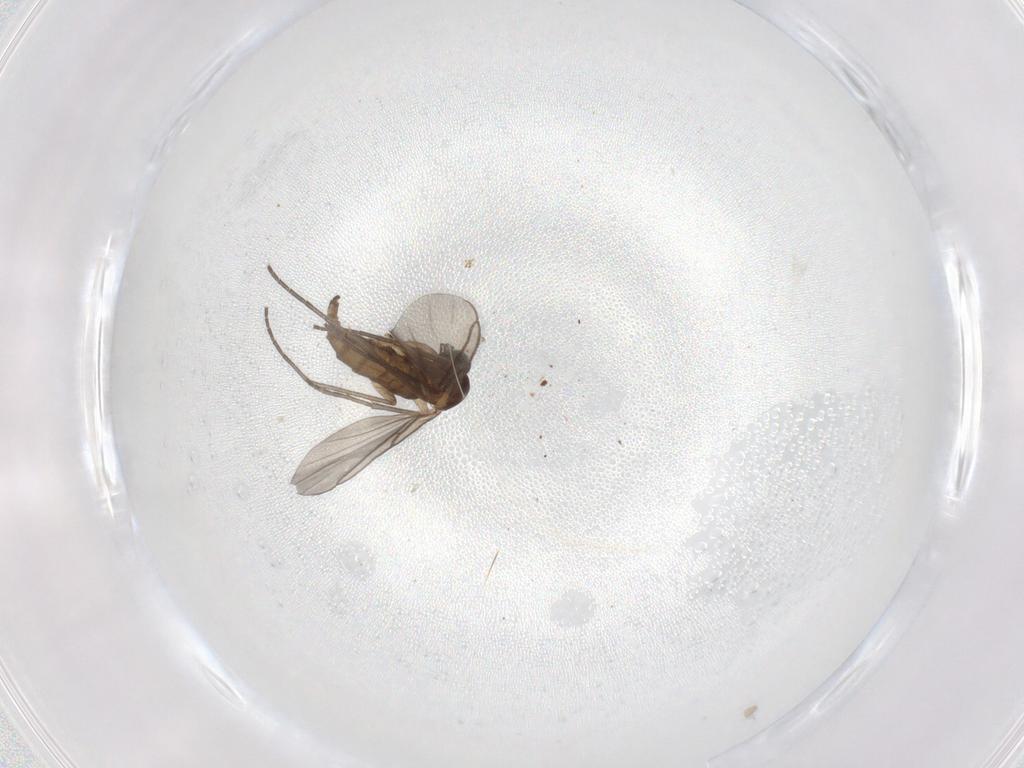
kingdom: Animalia
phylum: Arthropoda
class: Insecta
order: Diptera
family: Sciaridae
